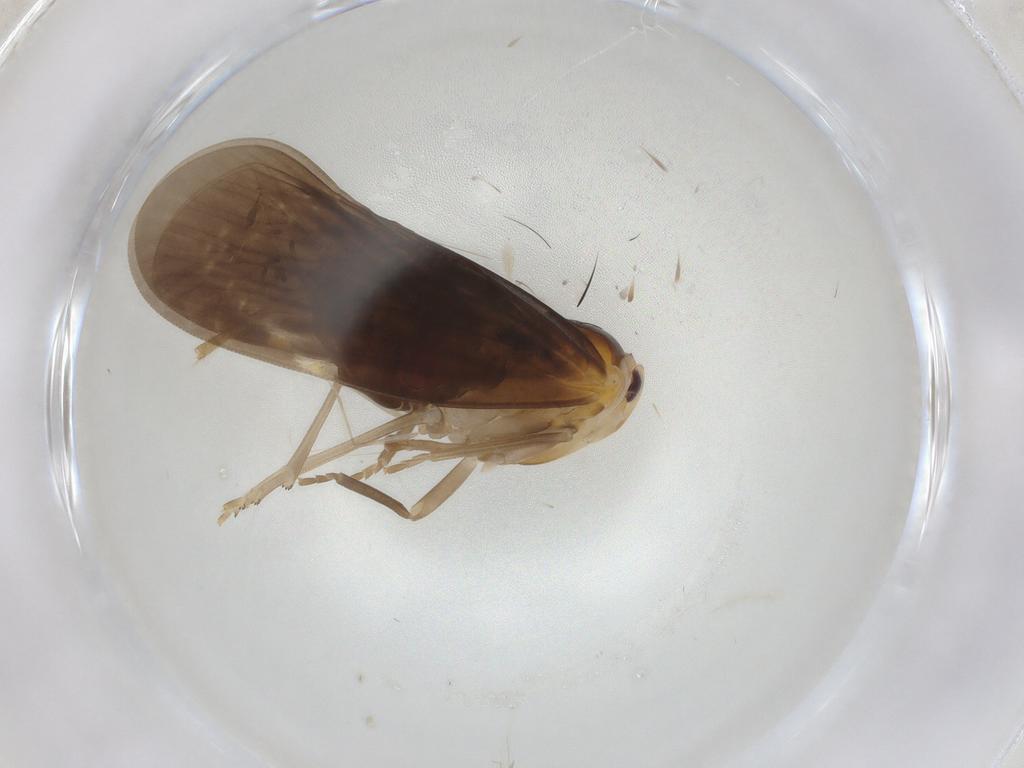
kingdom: Animalia
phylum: Arthropoda
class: Insecta
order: Hemiptera
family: Derbidae
